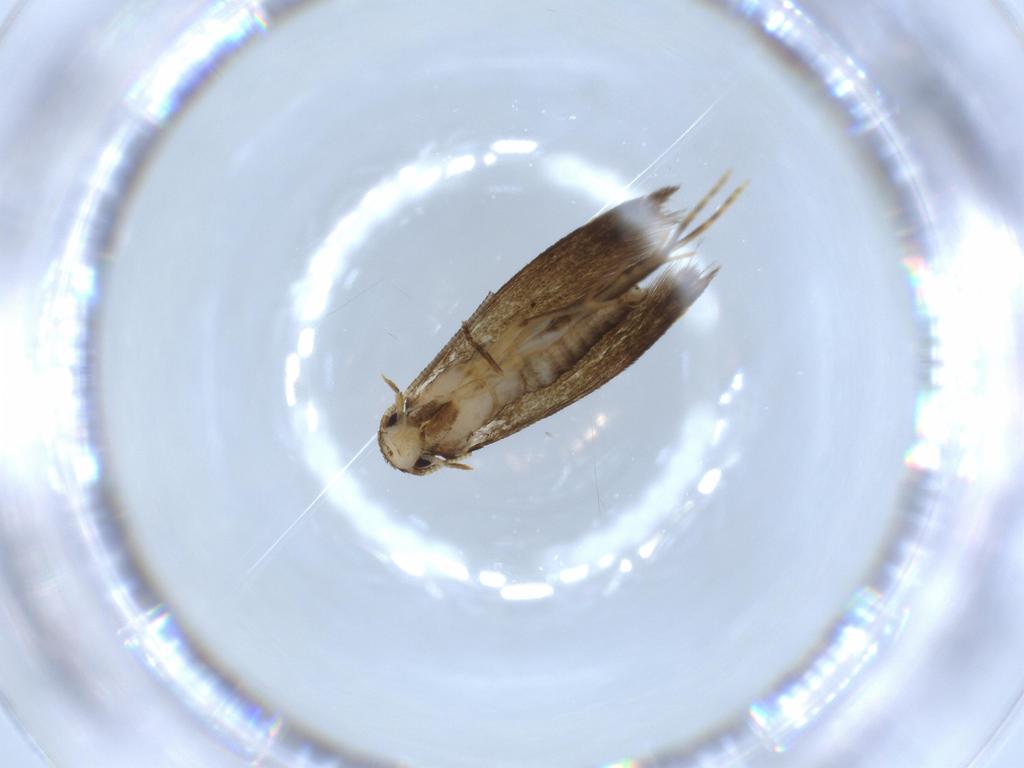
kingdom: Animalia
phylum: Arthropoda
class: Insecta
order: Lepidoptera
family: Tineidae
